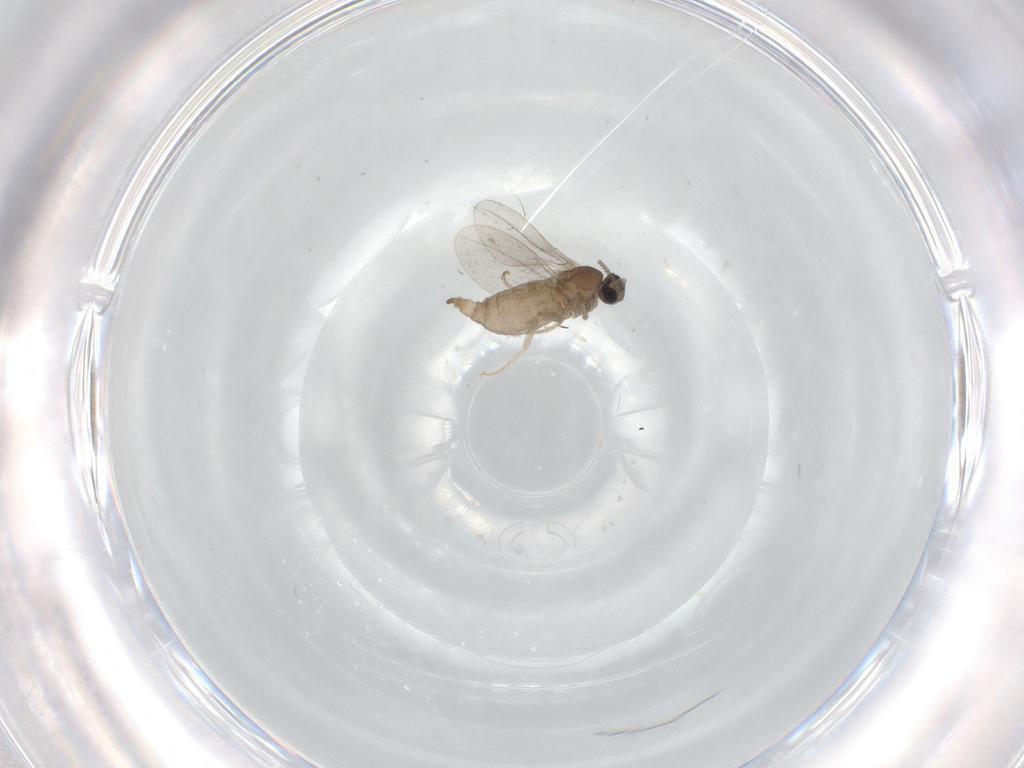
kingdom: Animalia
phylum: Arthropoda
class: Insecta
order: Diptera
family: Cecidomyiidae
